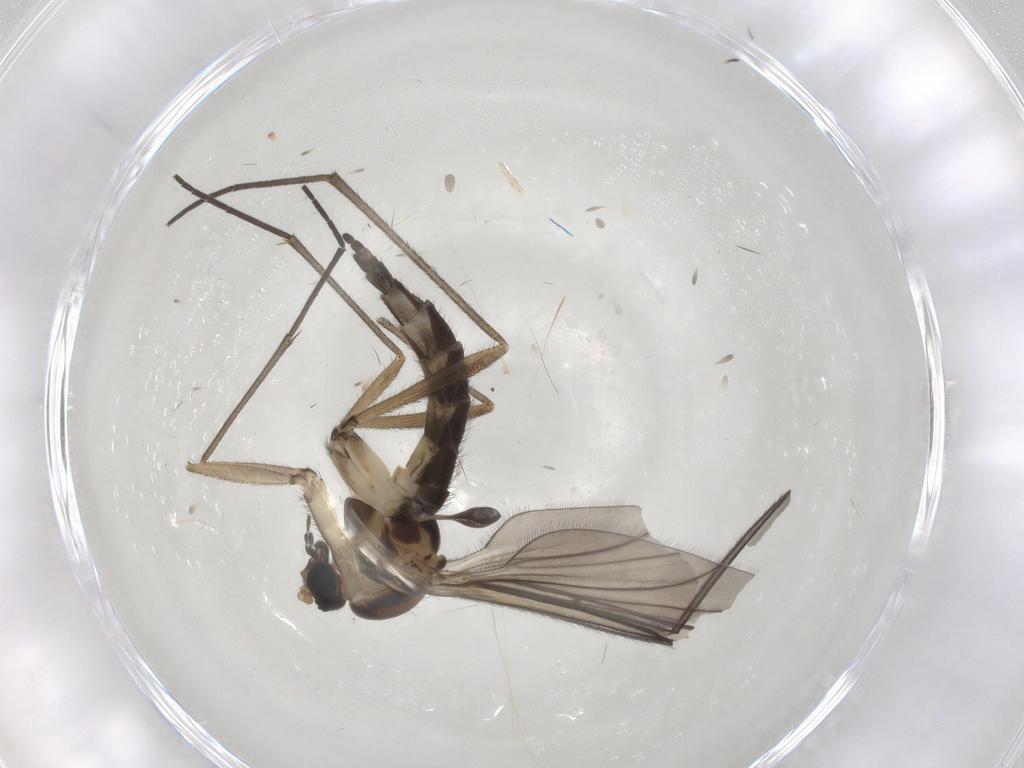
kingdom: Animalia
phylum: Arthropoda
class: Insecta
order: Diptera
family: Sciaridae
